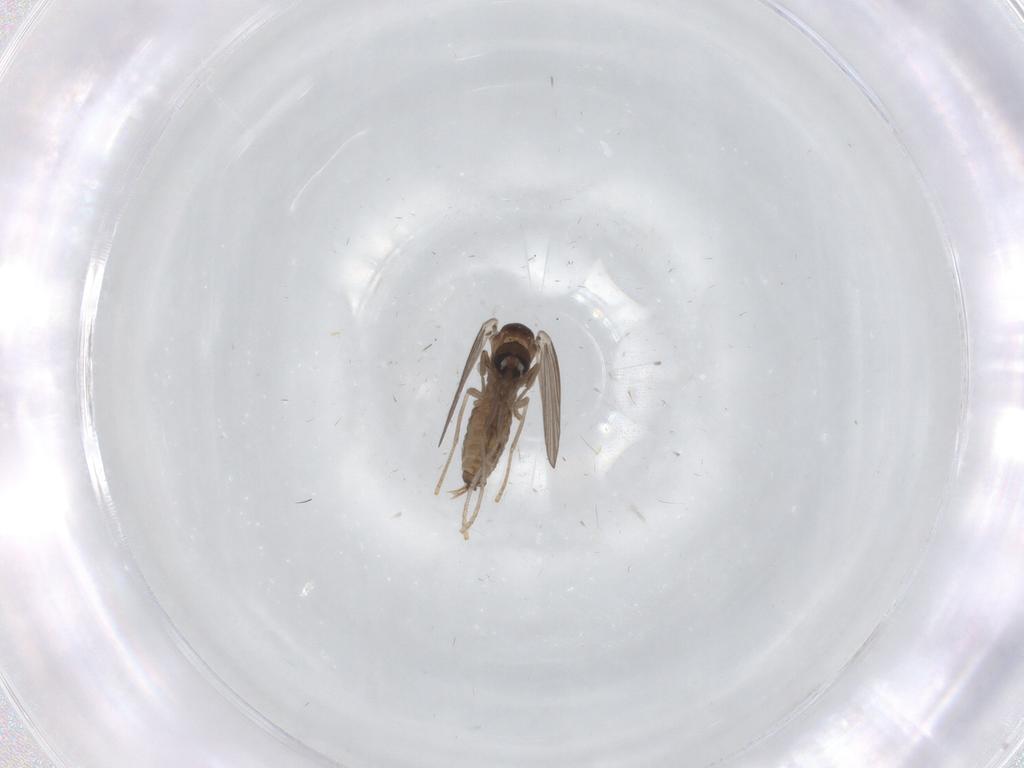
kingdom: Animalia
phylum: Arthropoda
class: Insecta
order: Diptera
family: Psychodidae
